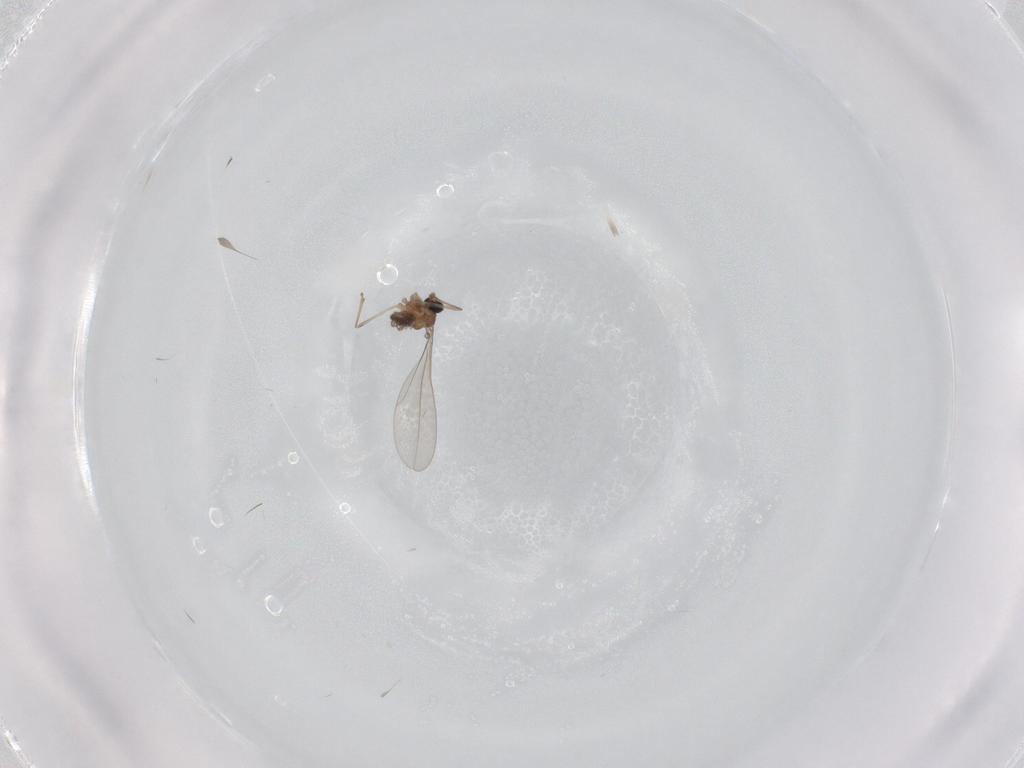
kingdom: Animalia
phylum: Arthropoda
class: Insecta
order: Diptera
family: Cecidomyiidae
